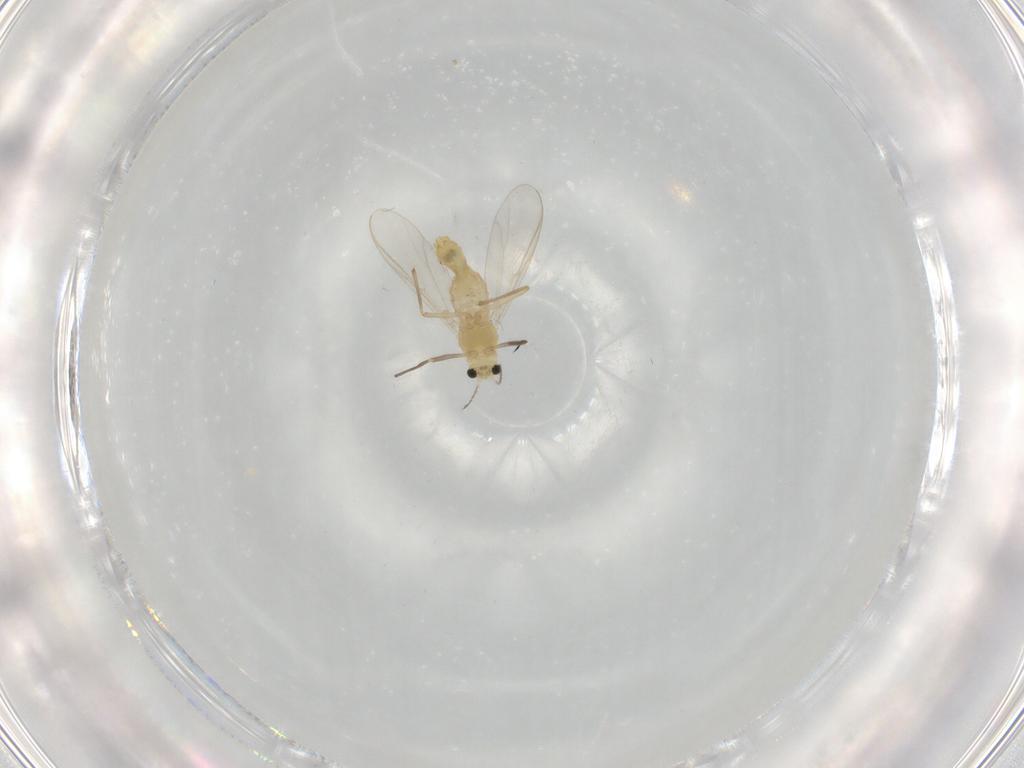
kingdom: Animalia
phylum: Arthropoda
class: Insecta
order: Diptera
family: Chironomidae
